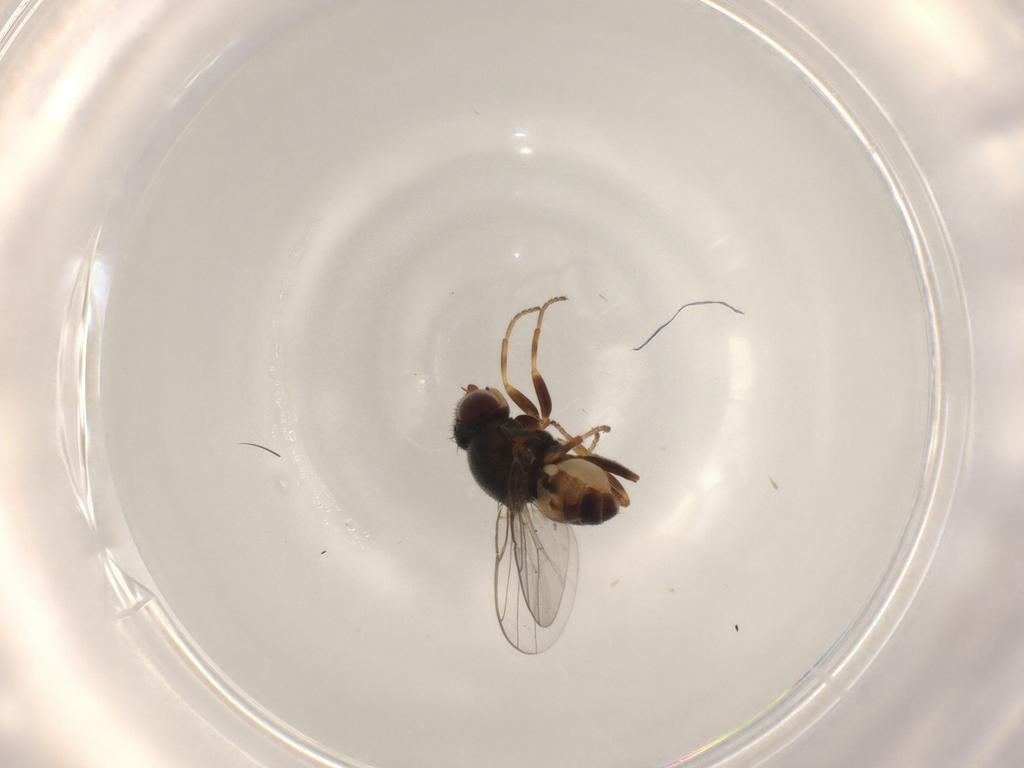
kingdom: Animalia
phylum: Arthropoda
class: Insecta
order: Diptera
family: Chloropidae
